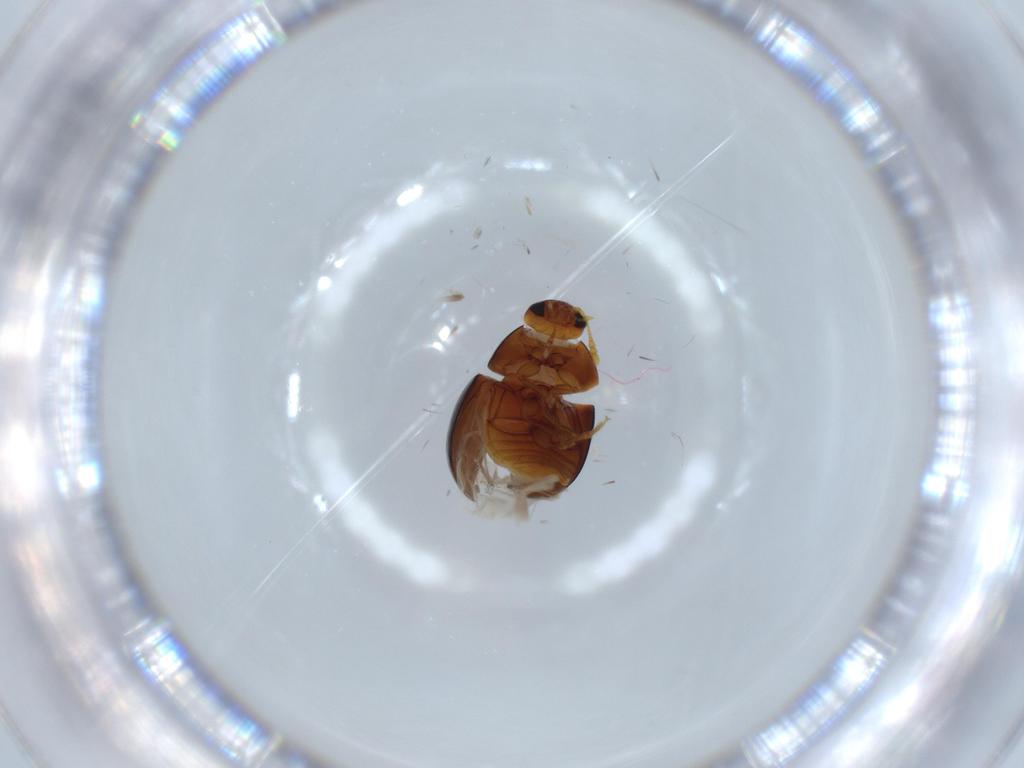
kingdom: Animalia
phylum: Arthropoda
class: Insecta
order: Coleoptera
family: Phalacridae
